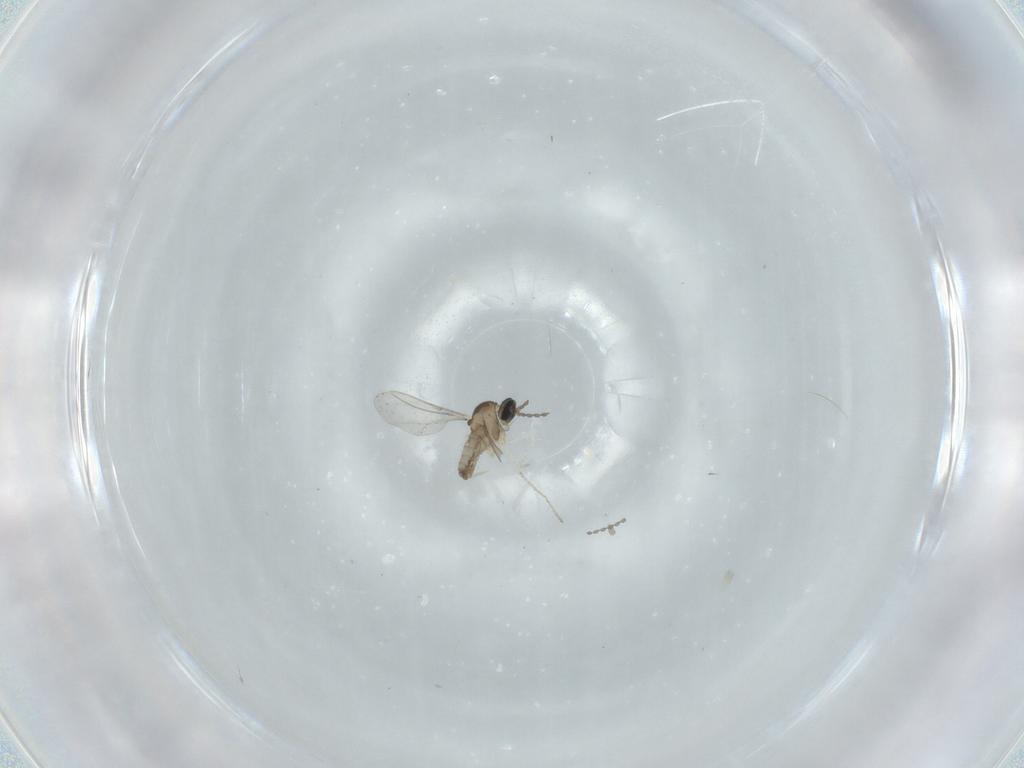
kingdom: Animalia
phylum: Arthropoda
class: Insecta
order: Diptera
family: Cecidomyiidae
